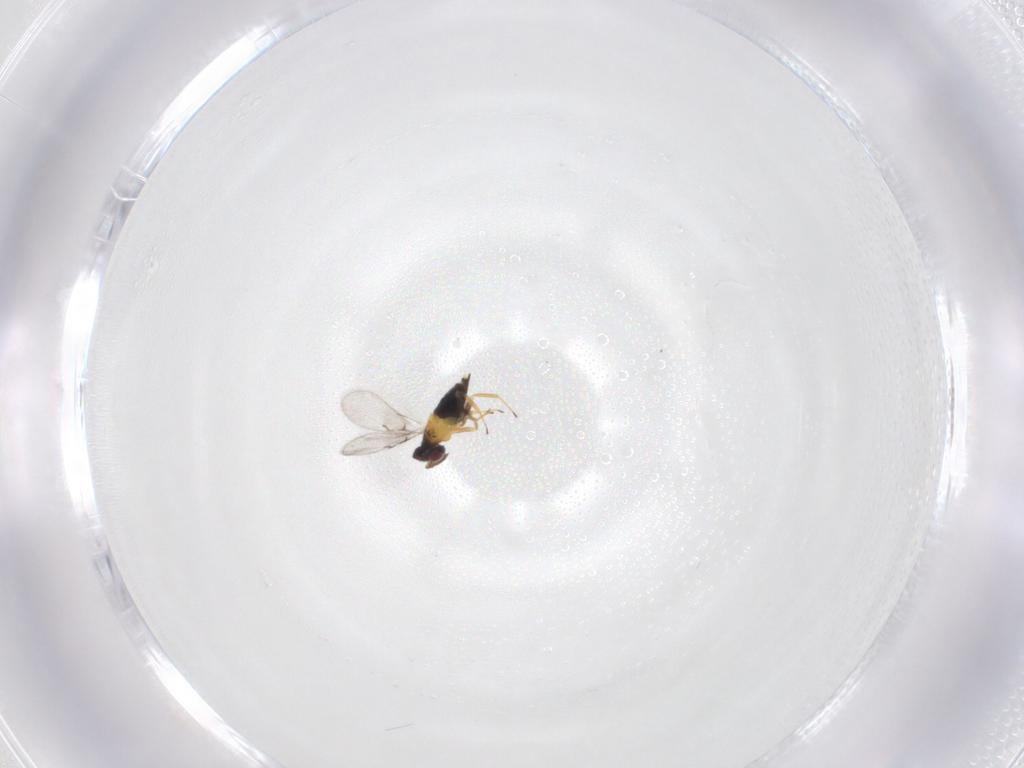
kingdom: Animalia
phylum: Arthropoda
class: Insecta
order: Hymenoptera
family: Trichogrammatidae
